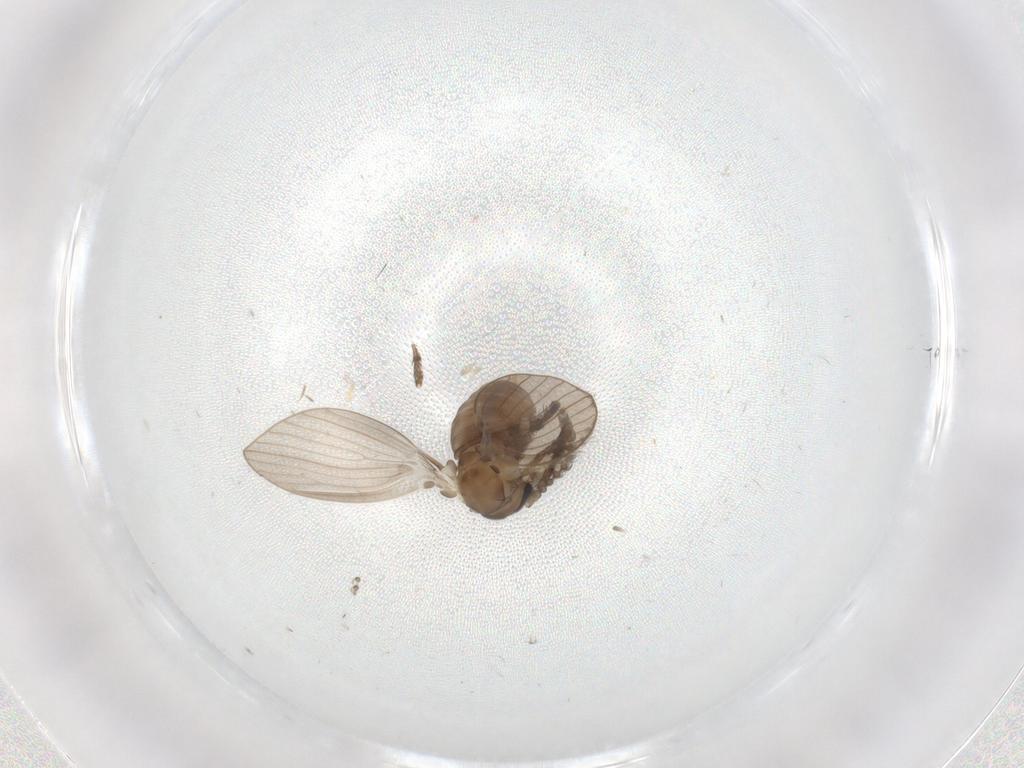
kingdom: Animalia
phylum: Arthropoda
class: Insecta
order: Diptera
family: Psychodidae
